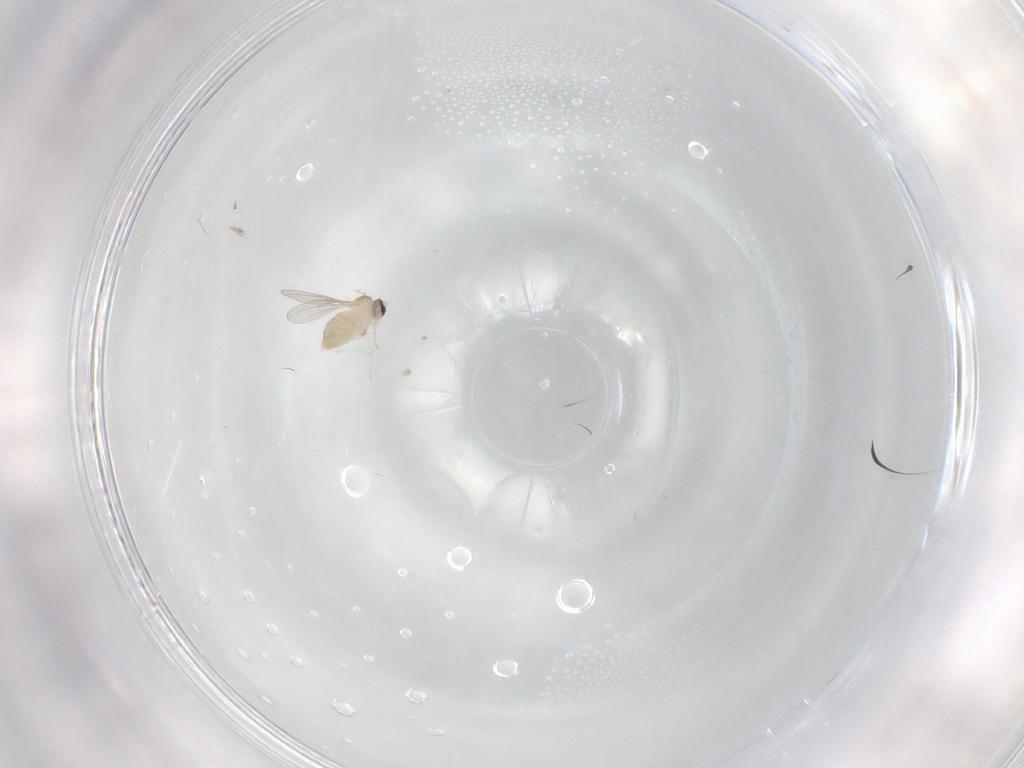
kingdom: Animalia
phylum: Arthropoda
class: Insecta
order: Diptera
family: Cecidomyiidae
